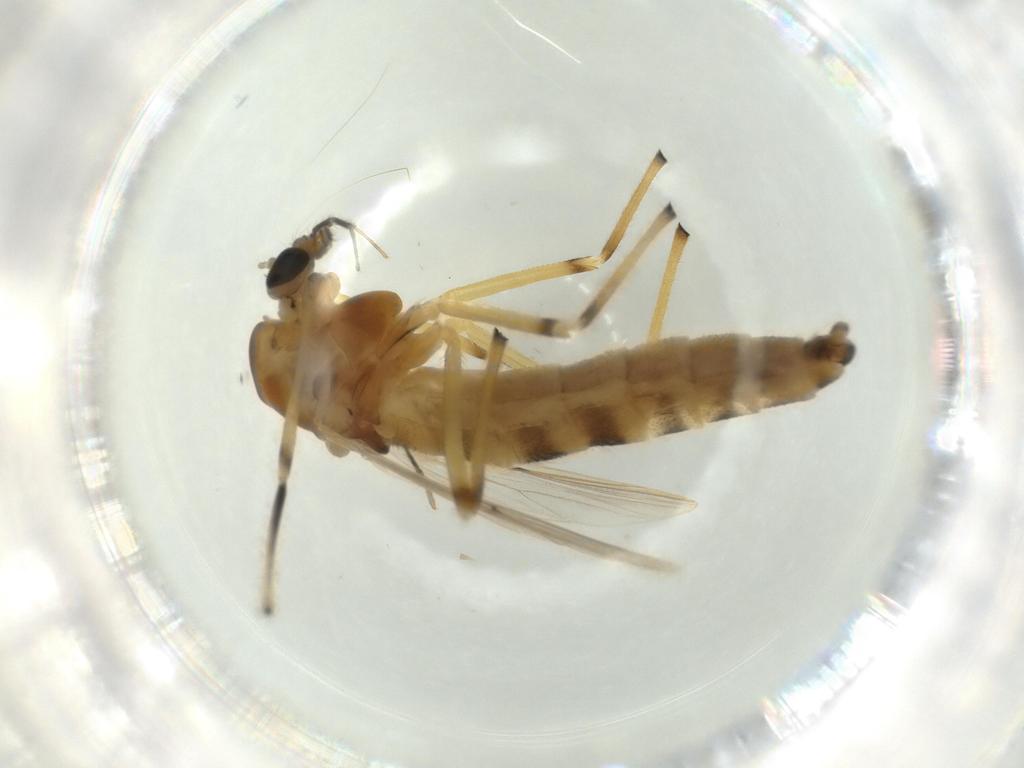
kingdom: Animalia
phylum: Arthropoda
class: Insecta
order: Diptera
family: Chironomidae
